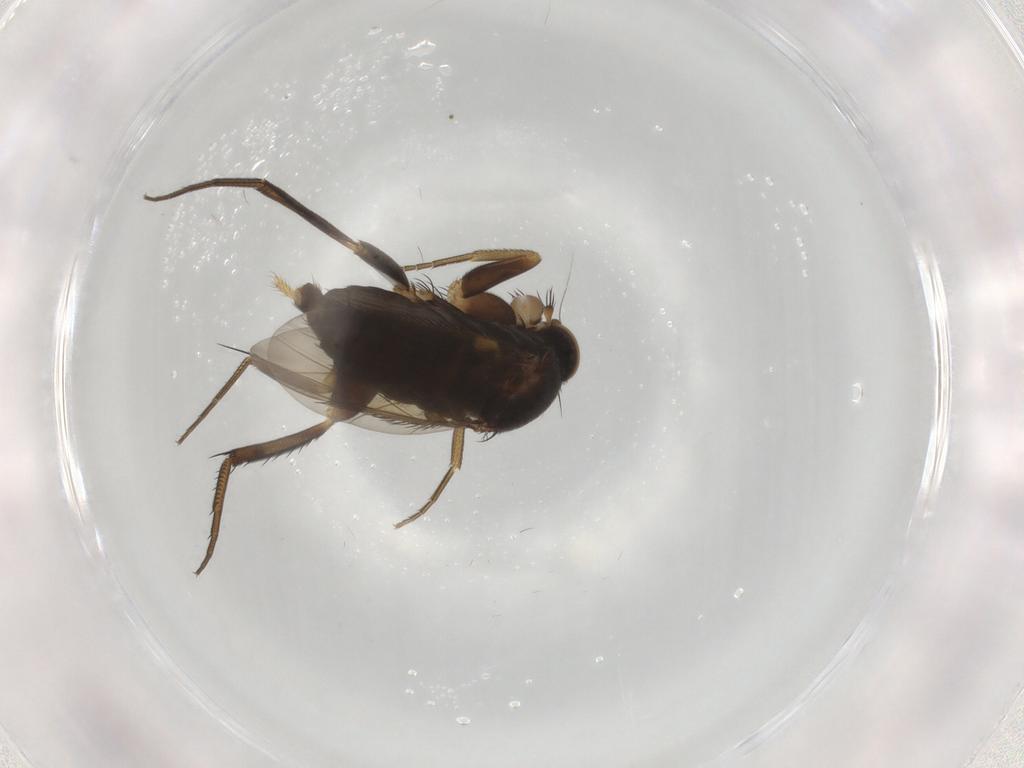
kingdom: Animalia
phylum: Arthropoda
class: Insecta
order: Diptera
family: Phoridae
